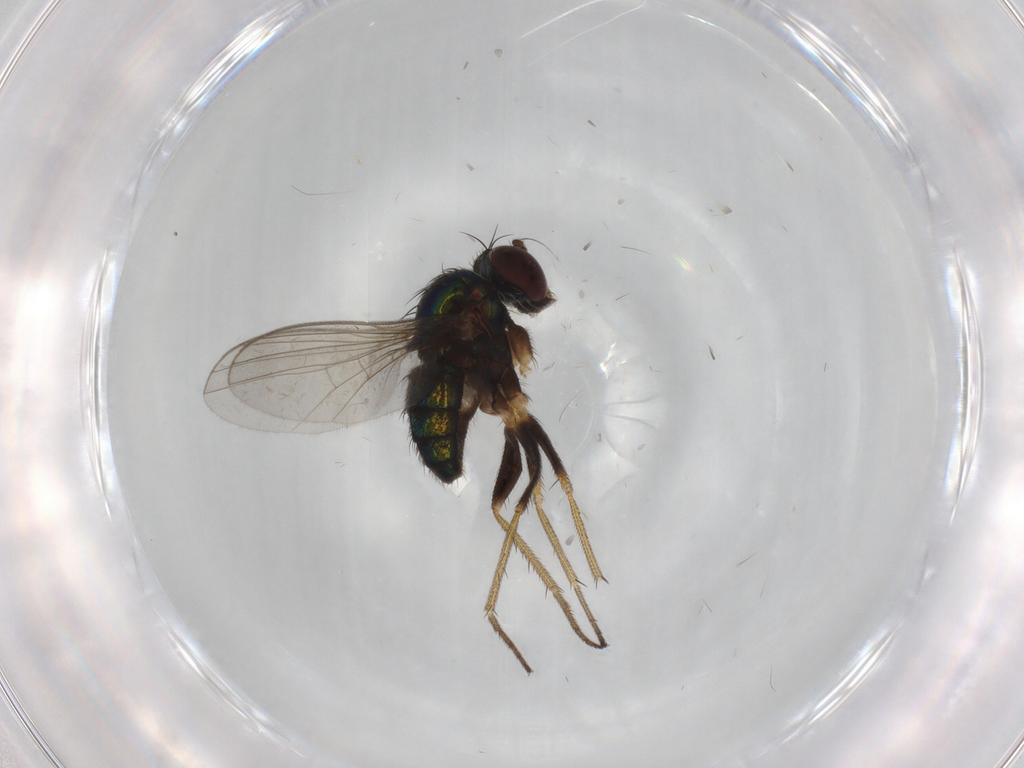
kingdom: Animalia
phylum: Arthropoda
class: Insecta
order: Diptera
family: Dolichopodidae
